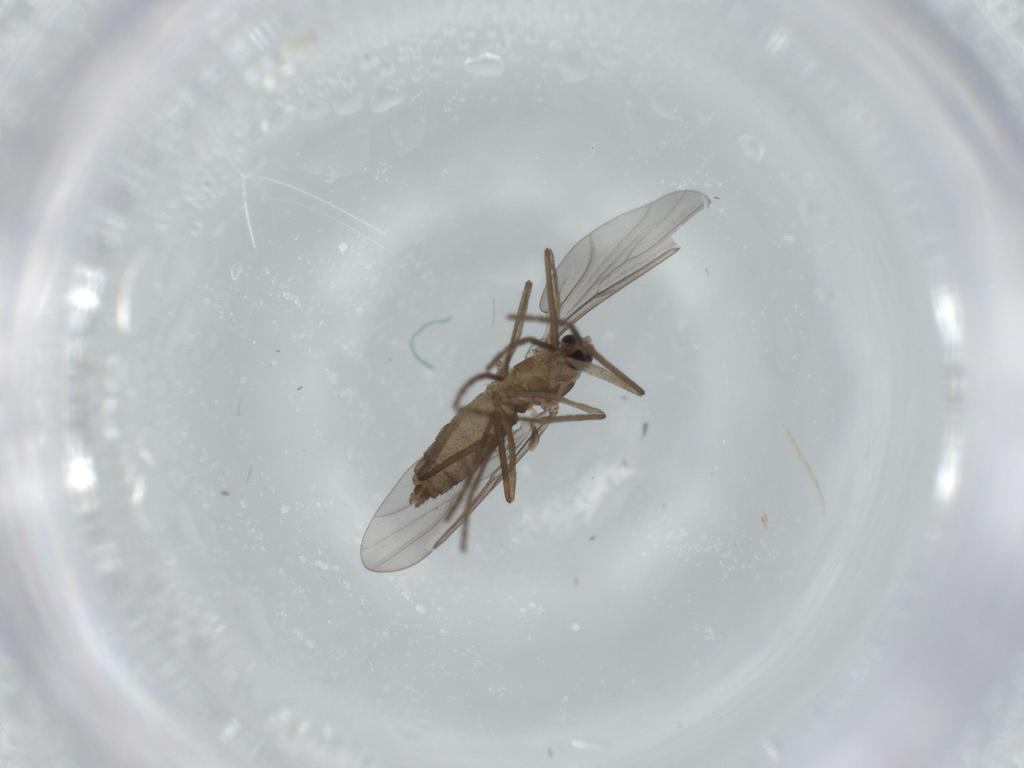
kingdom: Animalia
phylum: Arthropoda
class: Insecta
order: Diptera
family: Cecidomyiidae
